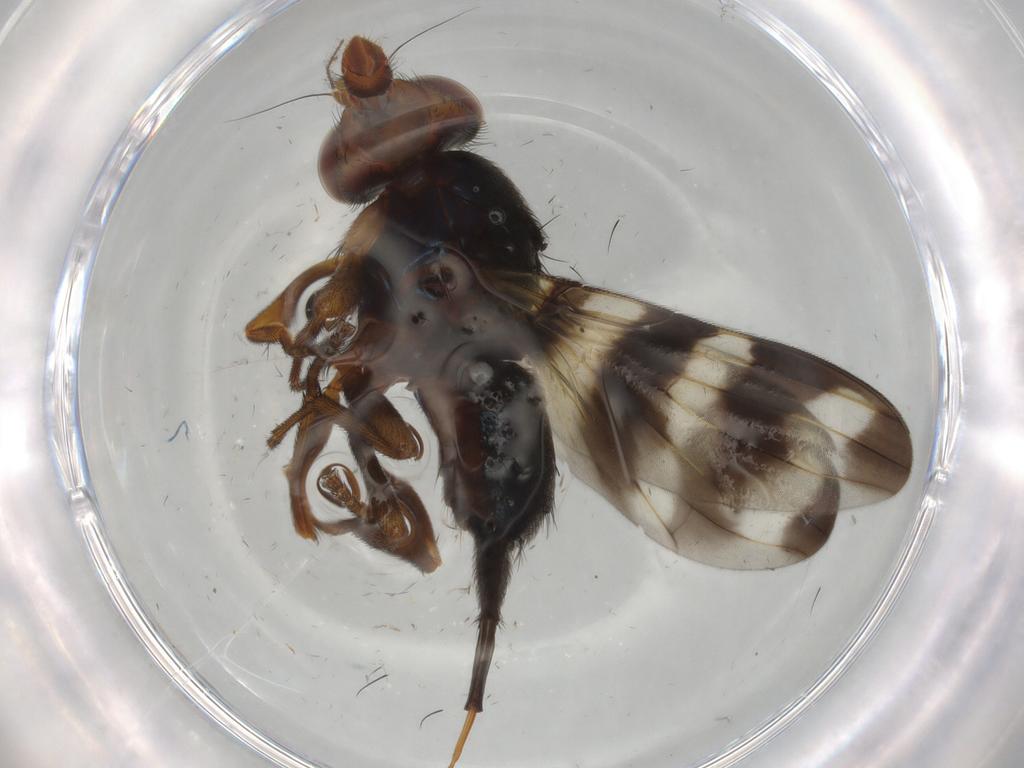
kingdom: Animalia
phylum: Arthropoda
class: Insecta
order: Diptera
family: Ulidiidae
